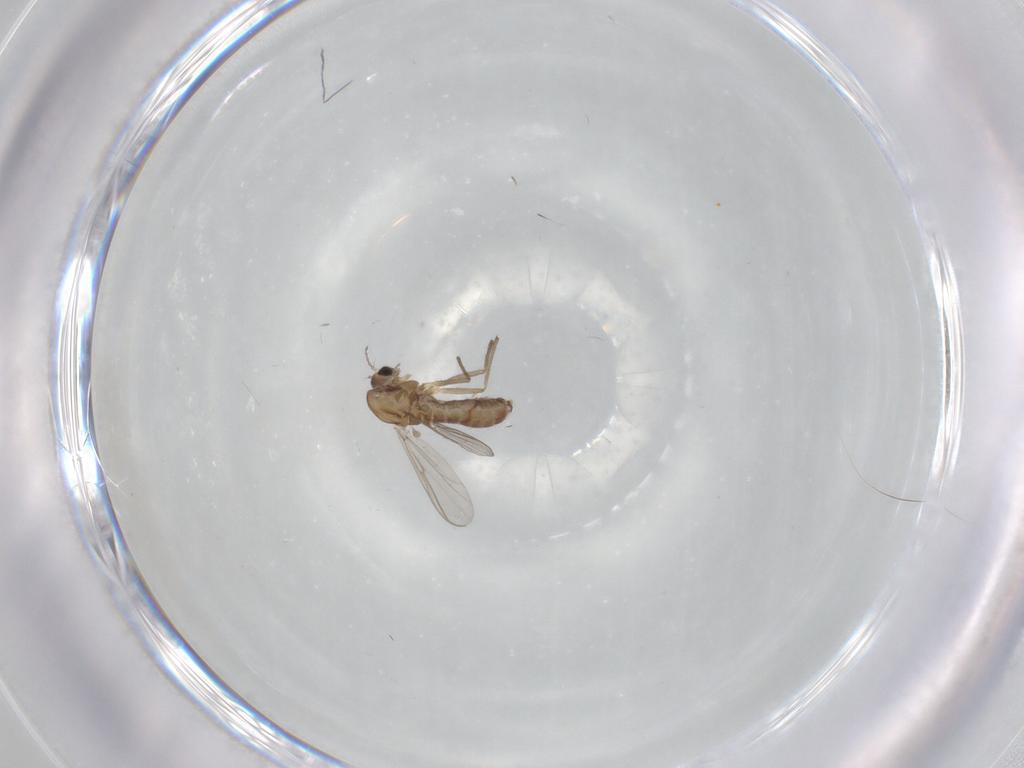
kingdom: Animalia
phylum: Arthropoda
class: Insecta
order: Diptera
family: Chironomidae
